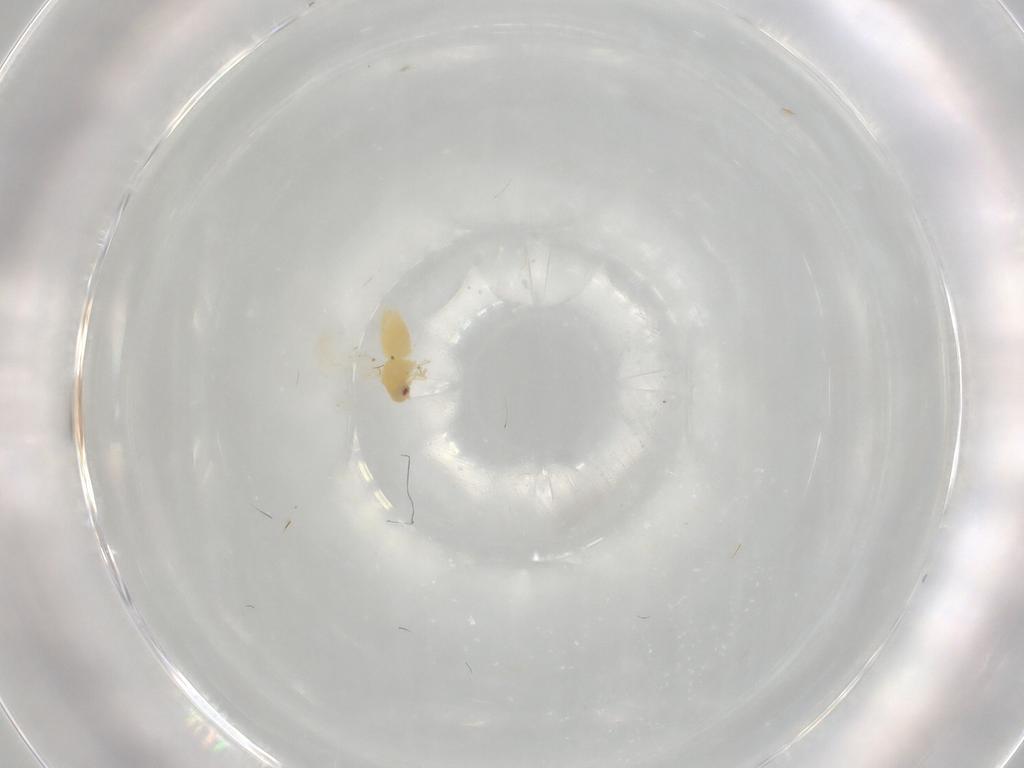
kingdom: Animalia
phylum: Arthropoda
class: Insecta
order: Hemiptera
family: Aleyrodidae
